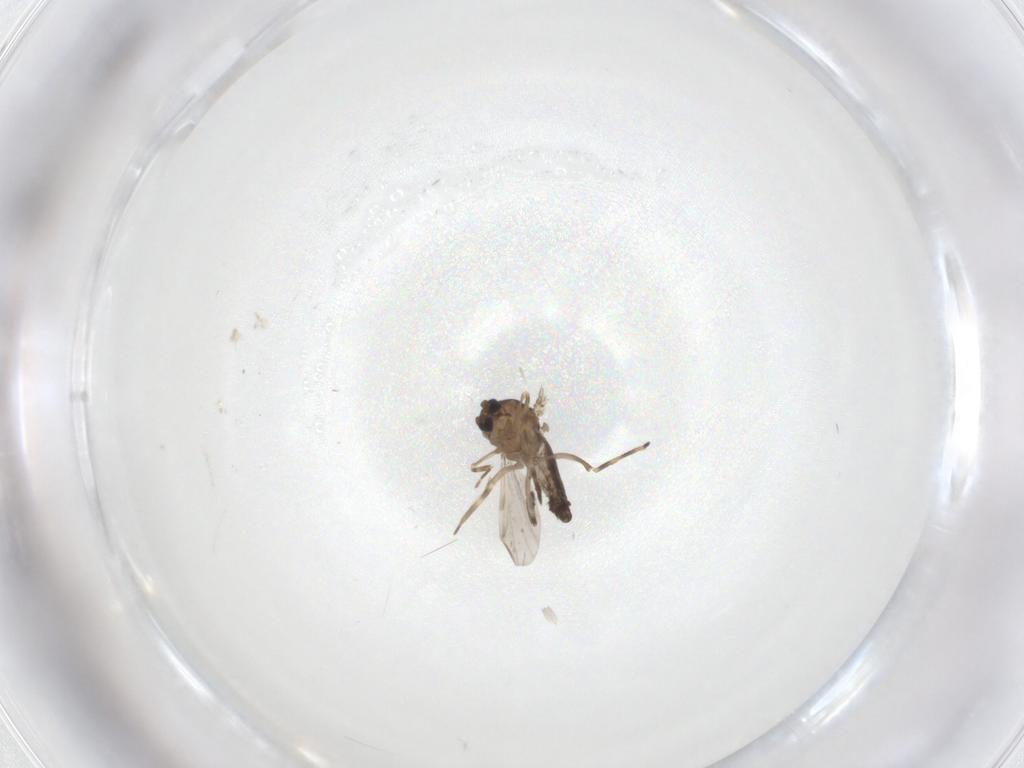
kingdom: Animalia
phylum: Arthropoda
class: Insecta
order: Diptera
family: Ceratopogonidae
